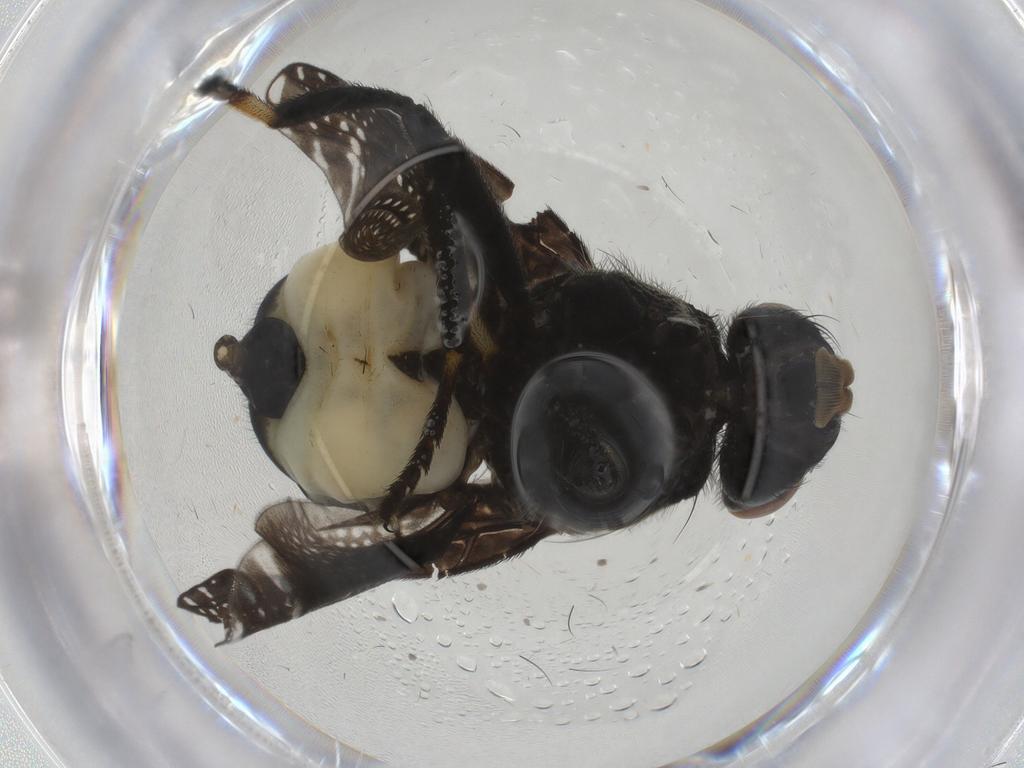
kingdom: Animalia
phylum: Arthropoda
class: Insecta
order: Diptera
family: Platystomatidae
